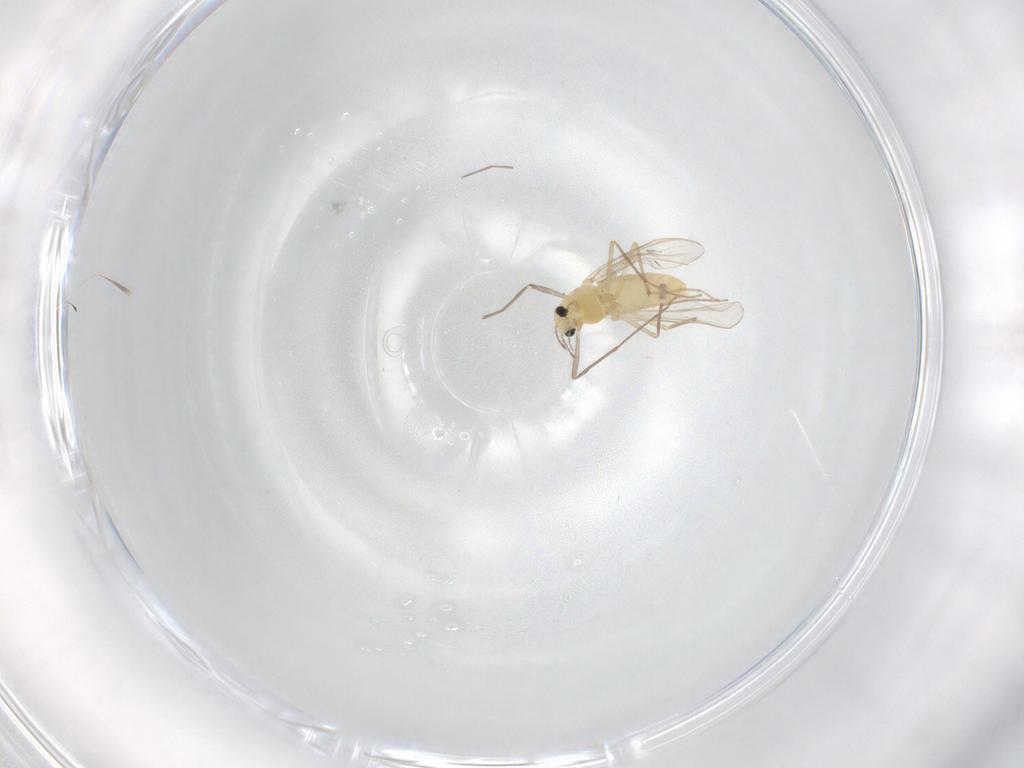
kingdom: Animalia
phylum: Arthropoda
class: Insecta
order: Diptera
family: Chironomidae
